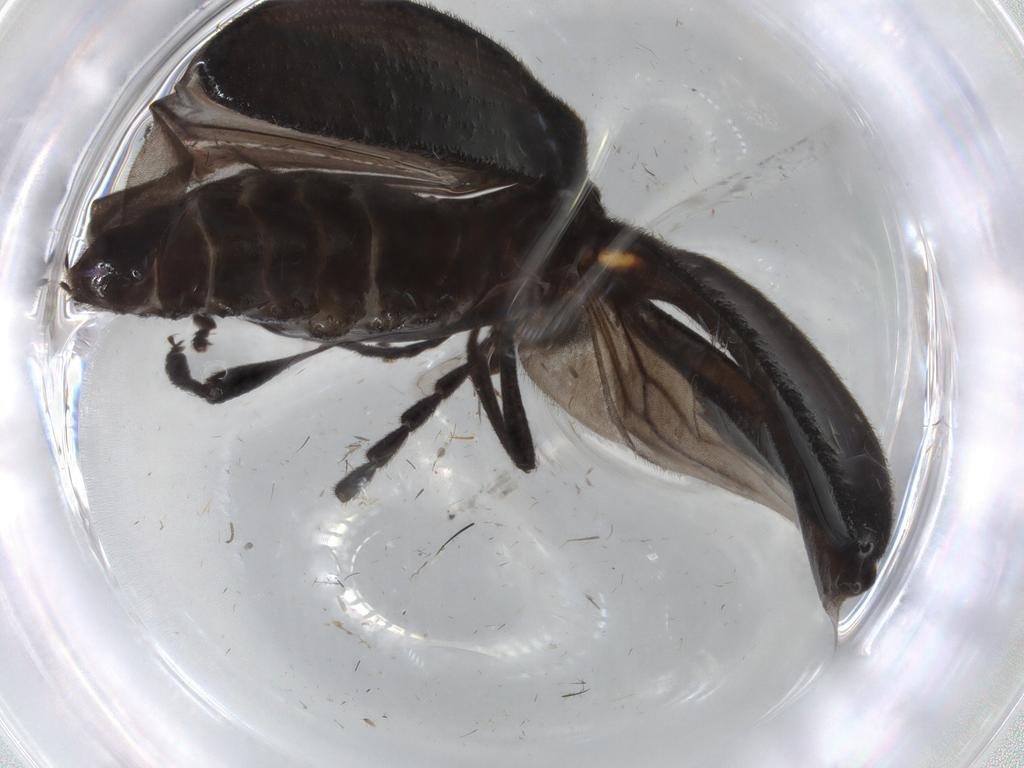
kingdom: Animalia
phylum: Arthropoda
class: Insecta
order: Coleoptera
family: Lycidae
